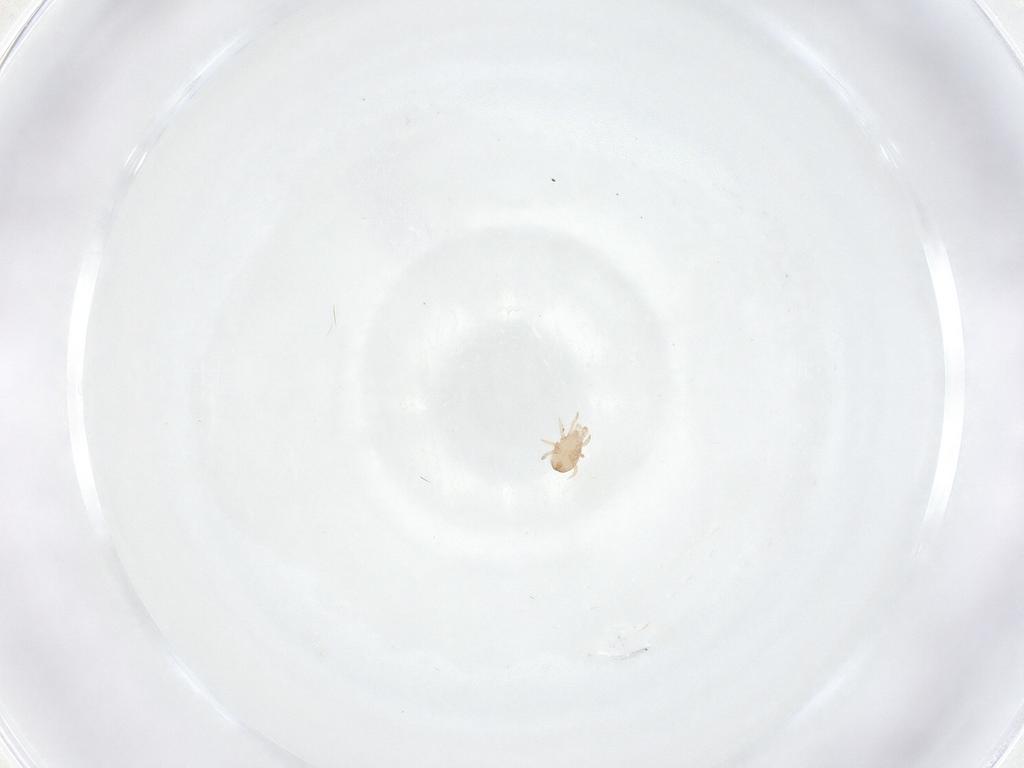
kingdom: Animalia
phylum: Arthropoda
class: Arachnida
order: Mesostigmata
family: Ascidae
